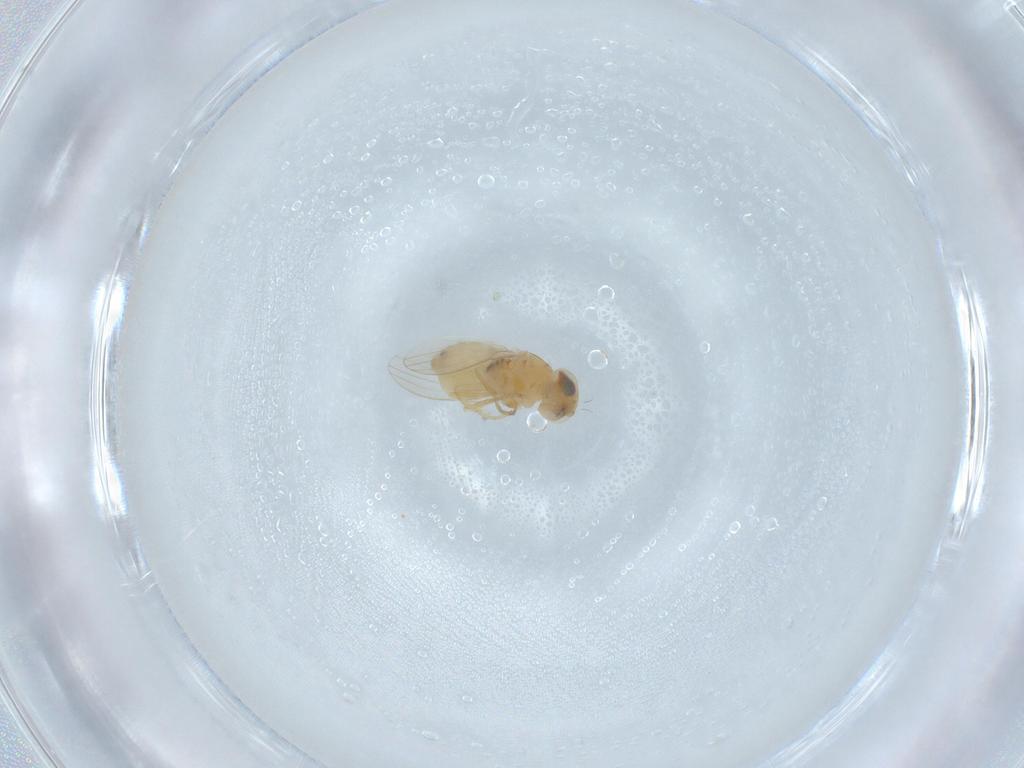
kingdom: Animalia
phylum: Arthropoda
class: Insecta
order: Diptera
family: Chyromyidae
